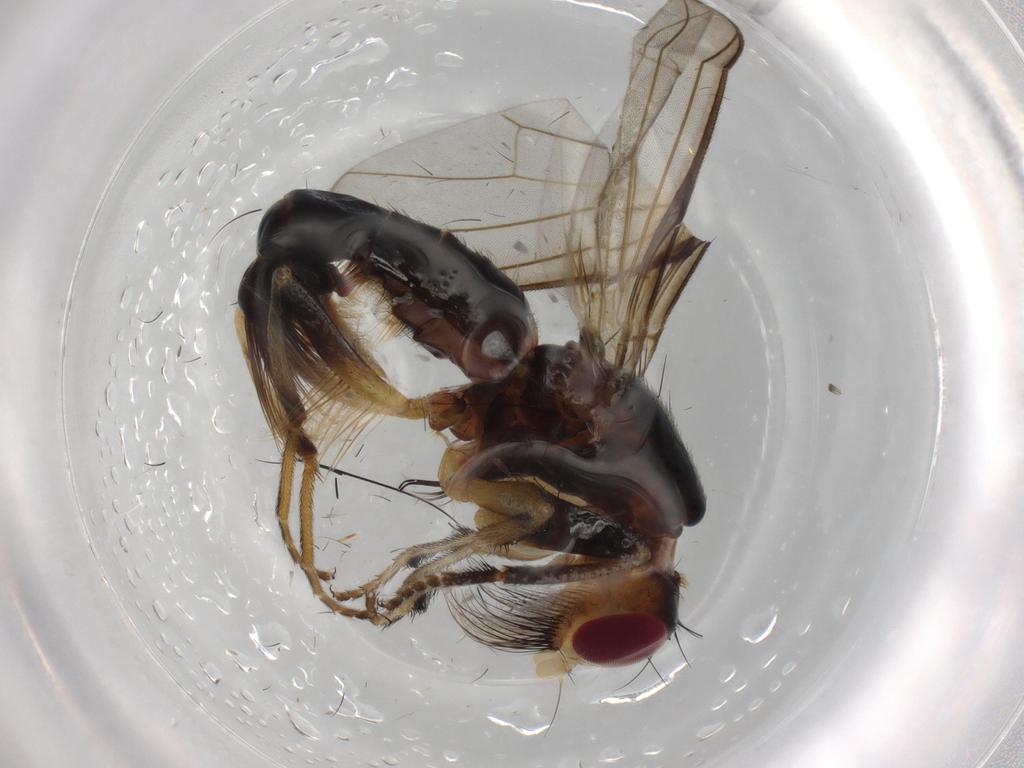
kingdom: Animalia
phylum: Arthropoda
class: Insecta
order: Diptera
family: Piophilidae
